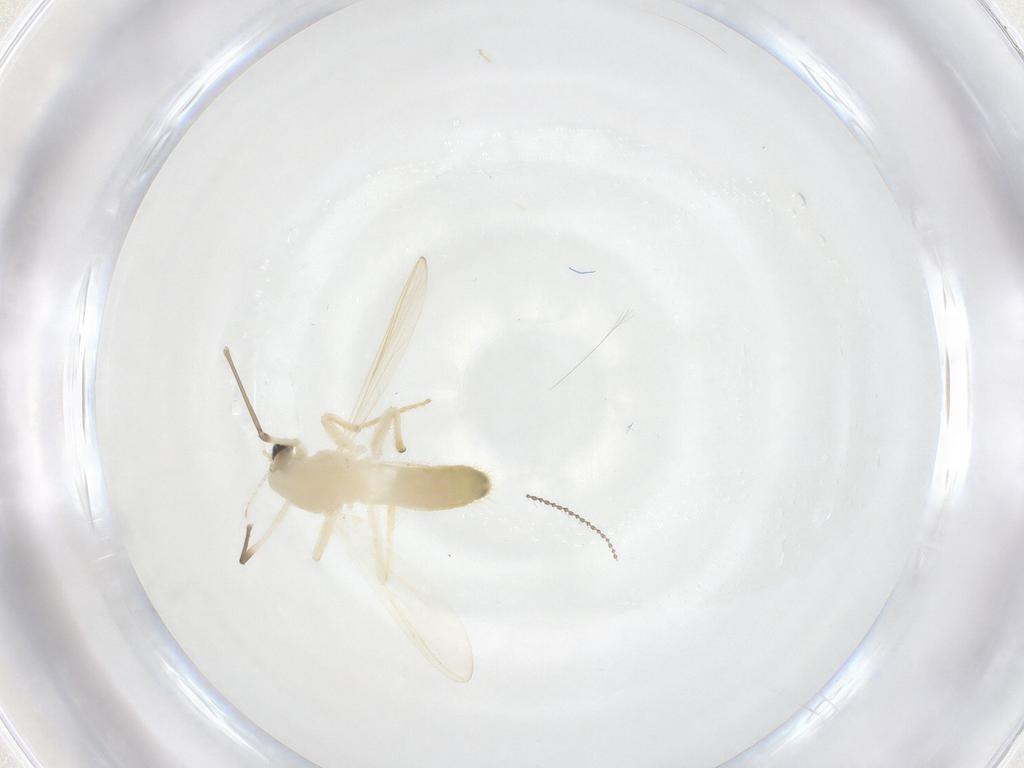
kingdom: Animalia
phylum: Arthropoda
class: Insecta
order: Diptera
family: Chironomidae
